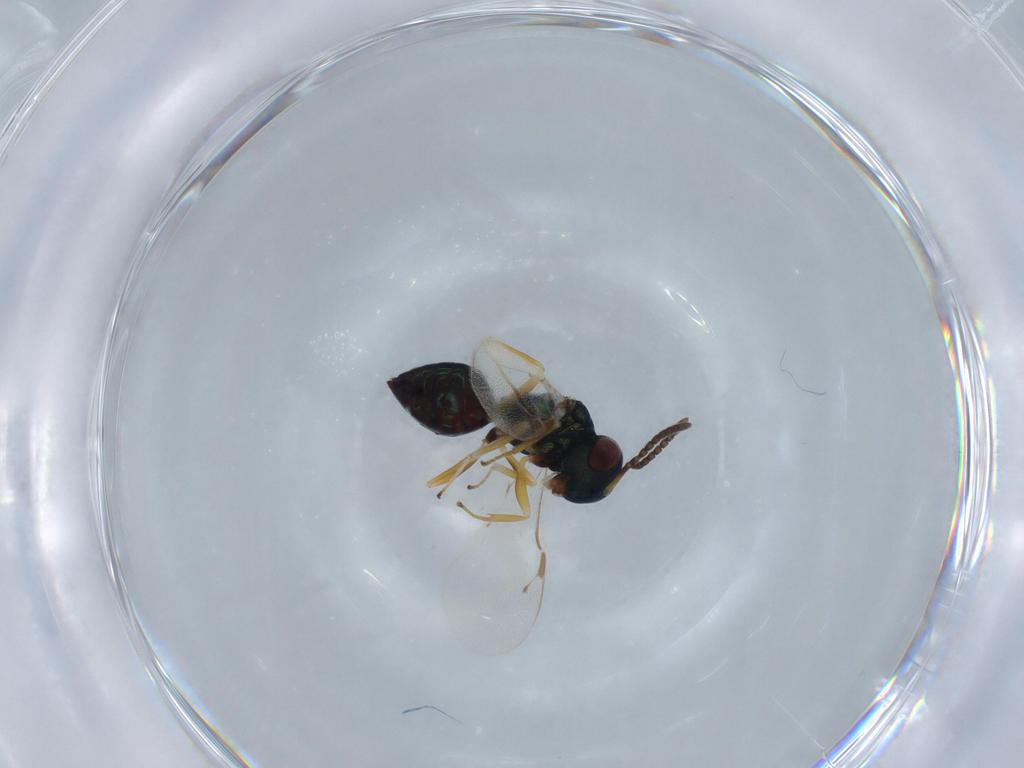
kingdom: Animalia
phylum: Arthropoda
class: Insecta
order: Hymenoptera
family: Pteromalidae
